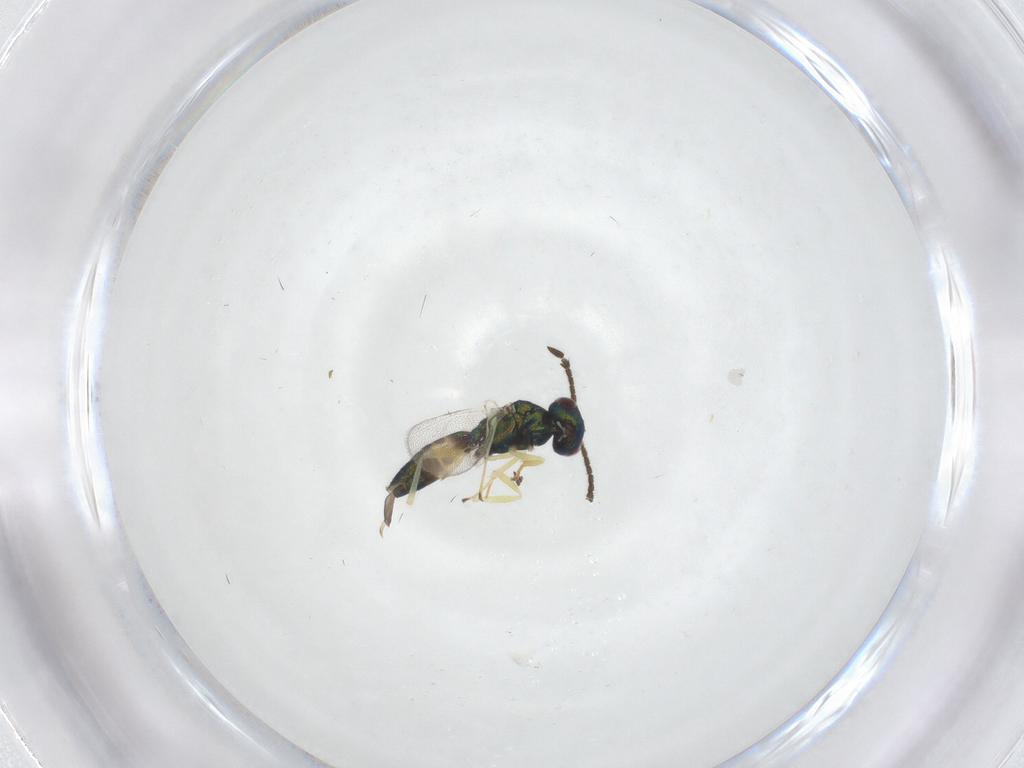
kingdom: Animalia
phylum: Arthropoda
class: Insecta
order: Hymenoptera
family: Pteromalidae
